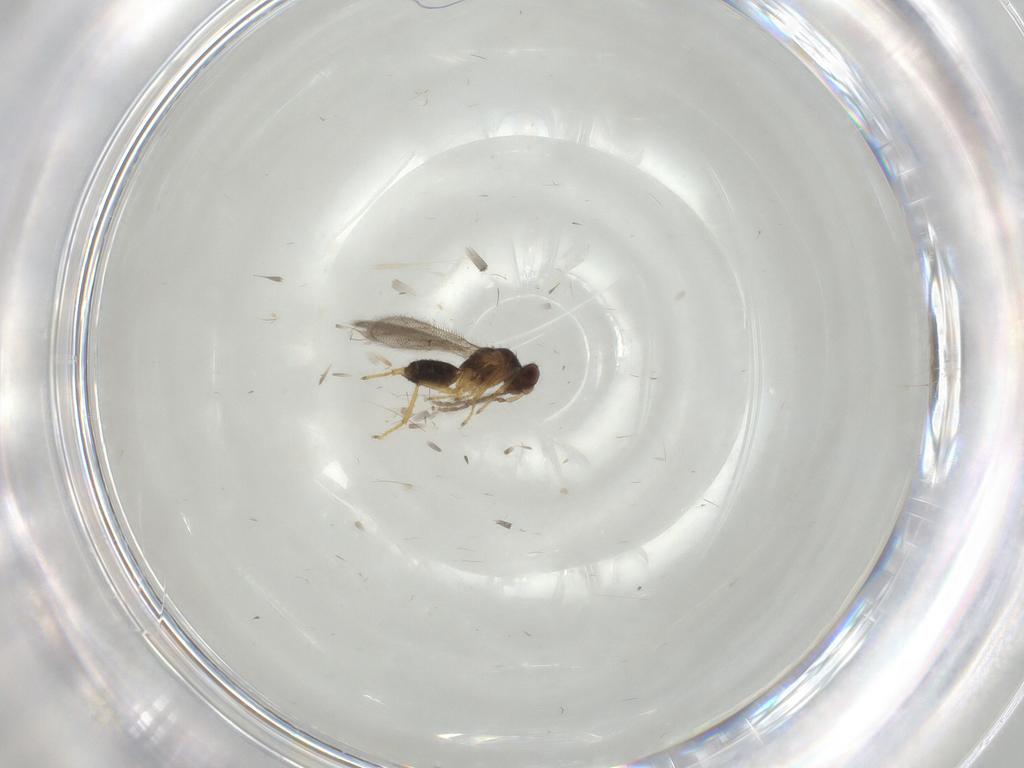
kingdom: Animalia
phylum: Arthropoda
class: Insecta
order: Hymenoptera
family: Eulophidae
